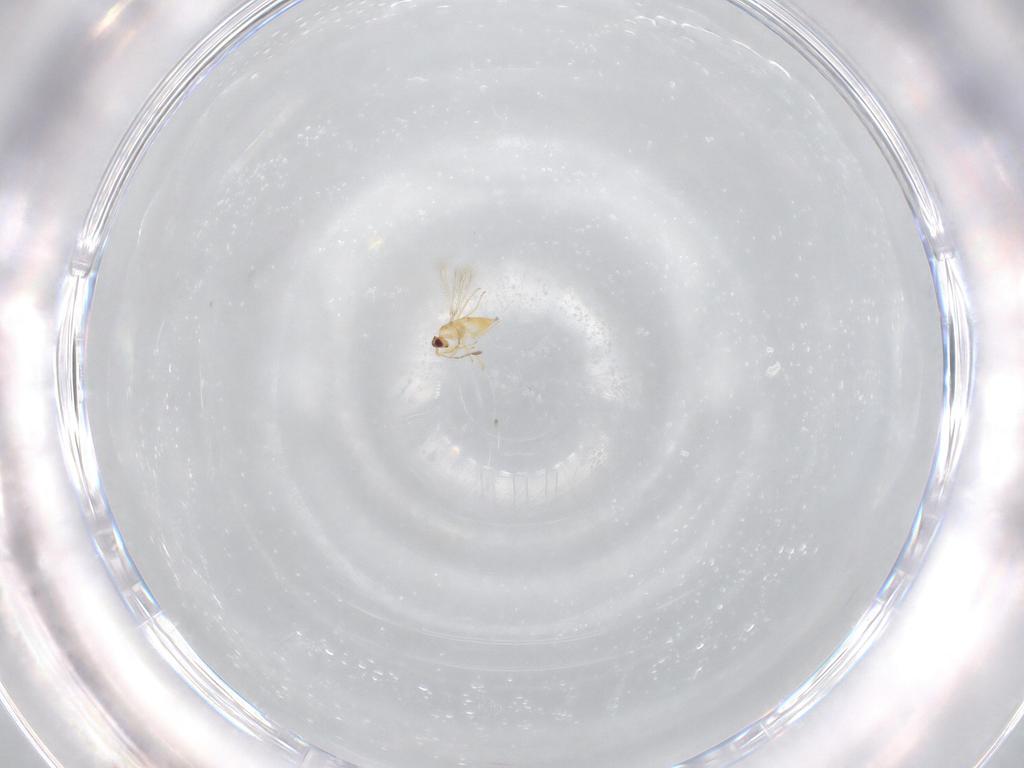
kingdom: Animalia
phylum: Arthropoda
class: Insecta
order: Hymenoptera
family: Mymaridae
